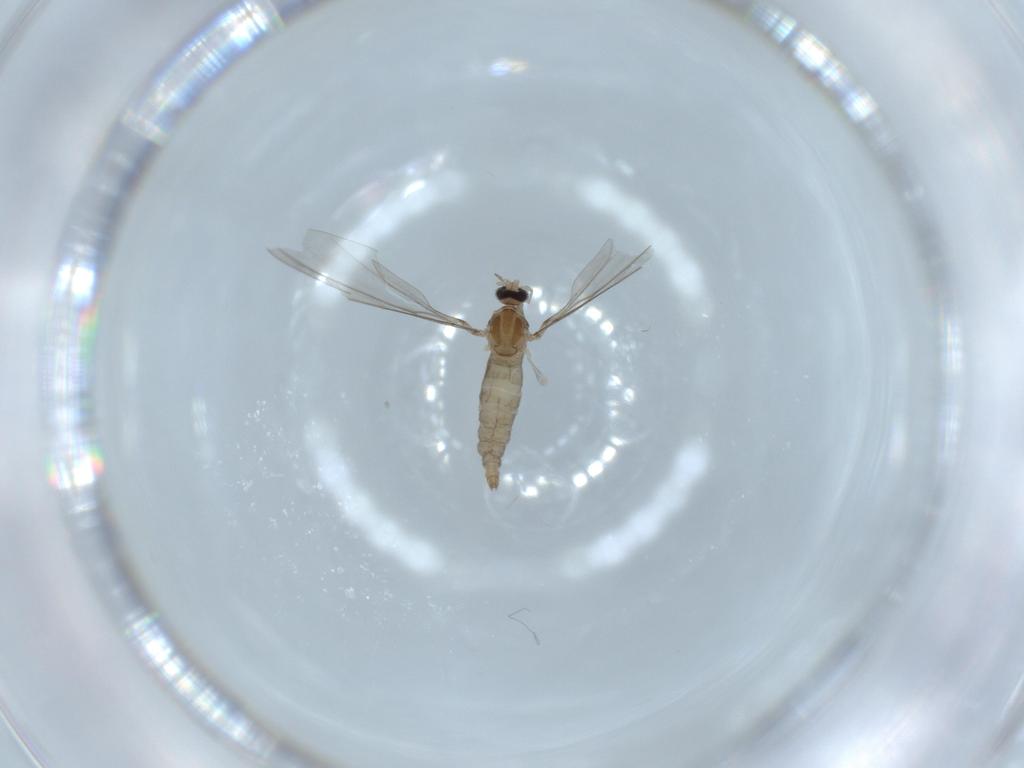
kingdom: Animalia
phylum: Arthropoda
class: Insecta
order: Diptera
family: Cecidomyiidae
